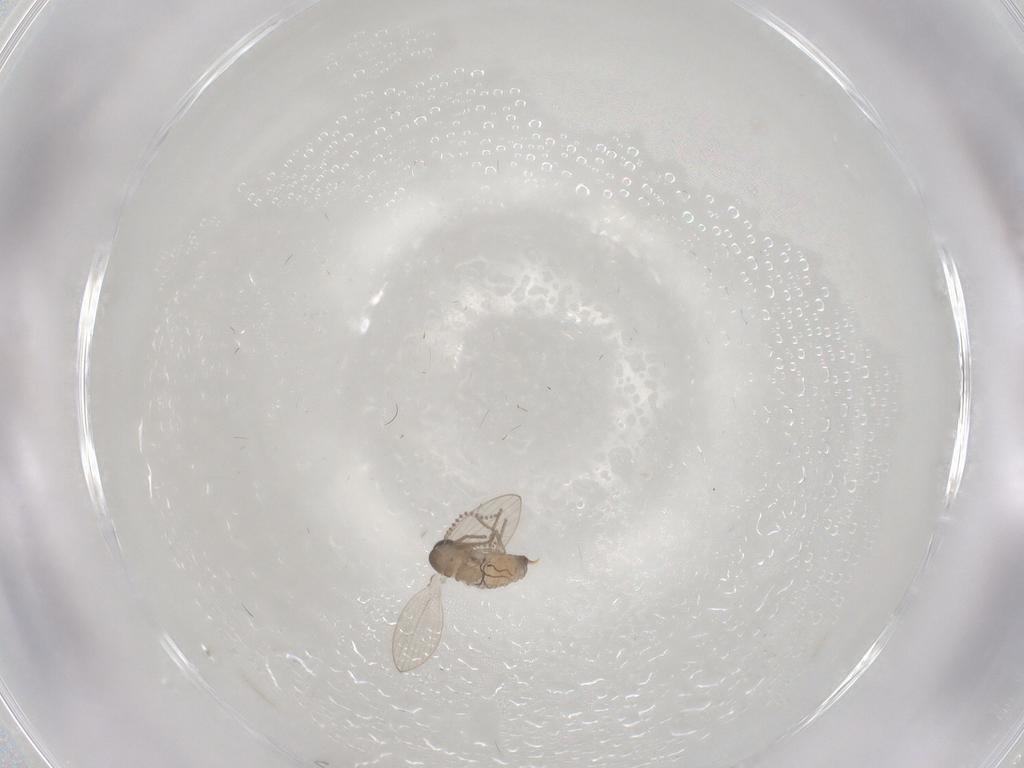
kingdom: Animalia
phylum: Arthropoda
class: Insecta
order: Diptera
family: Psychodidae
